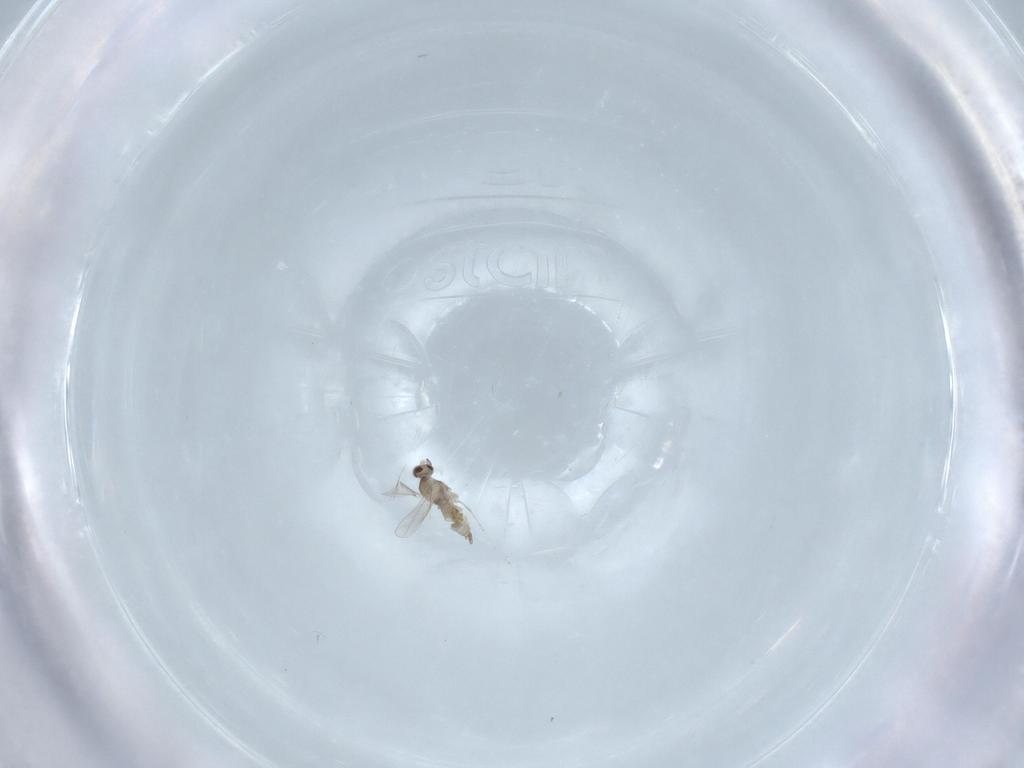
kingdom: Animalia
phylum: Arthropoda
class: Insecta
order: Diptera
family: Cecidomyiidae
